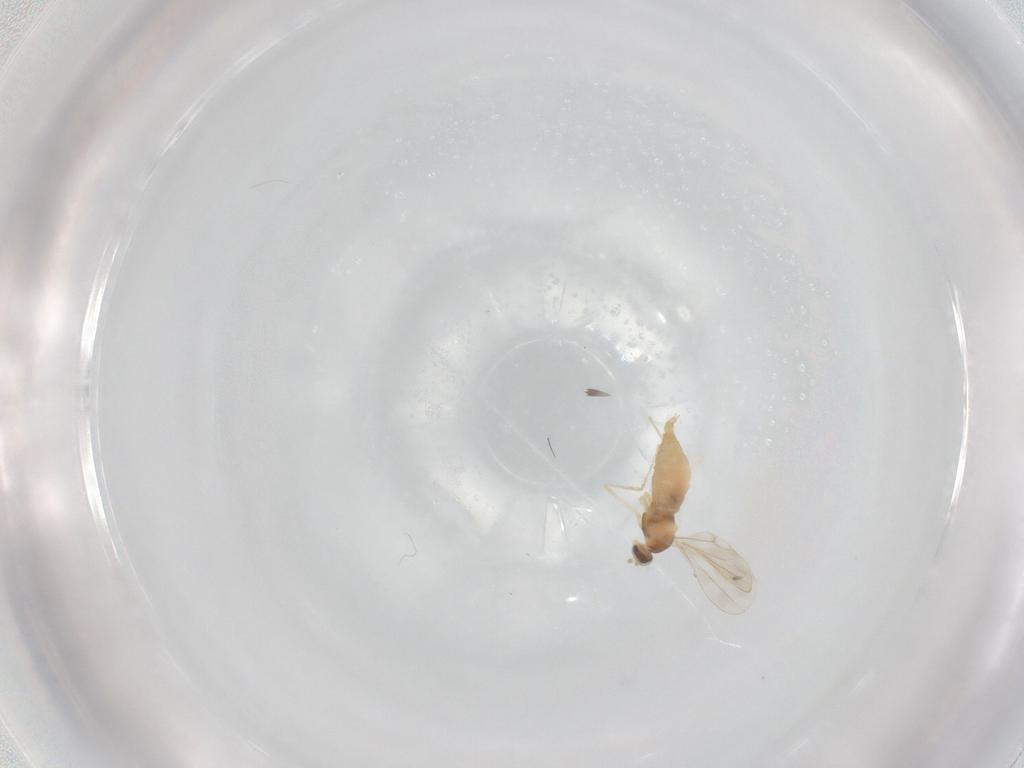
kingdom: Animalia
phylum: Arthropoda
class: Insecta
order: Diptera
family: Cecidomyiidae
